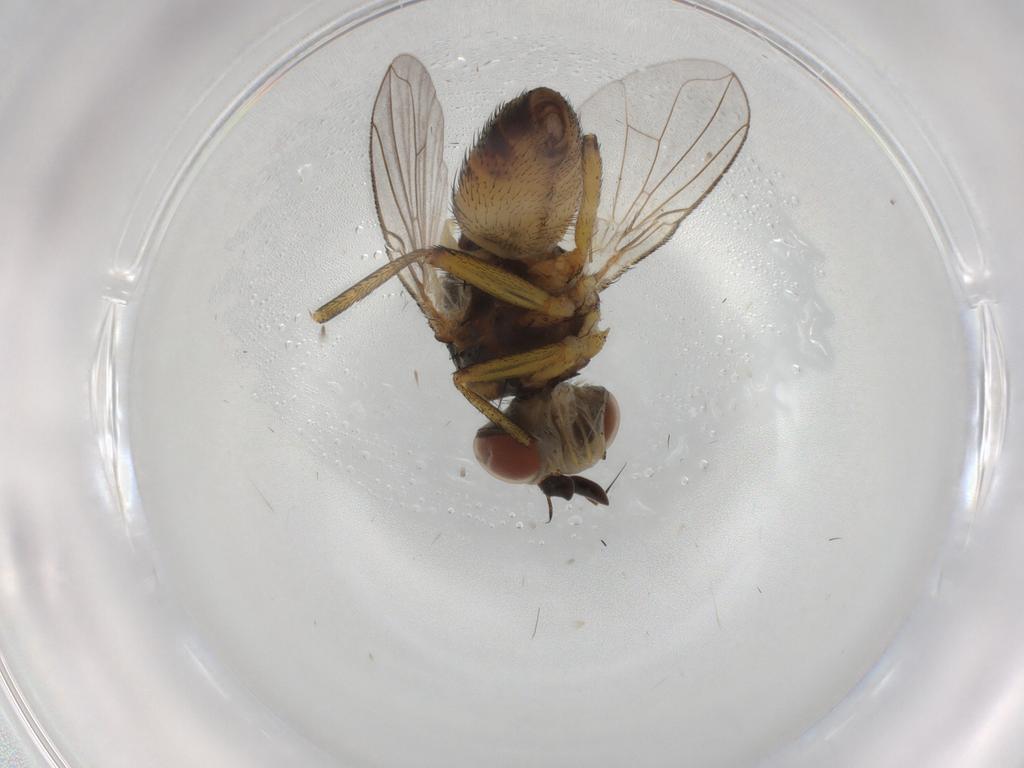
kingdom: Animalia
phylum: Arthropoda
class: Insecta
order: Diptera
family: Tachinidae
